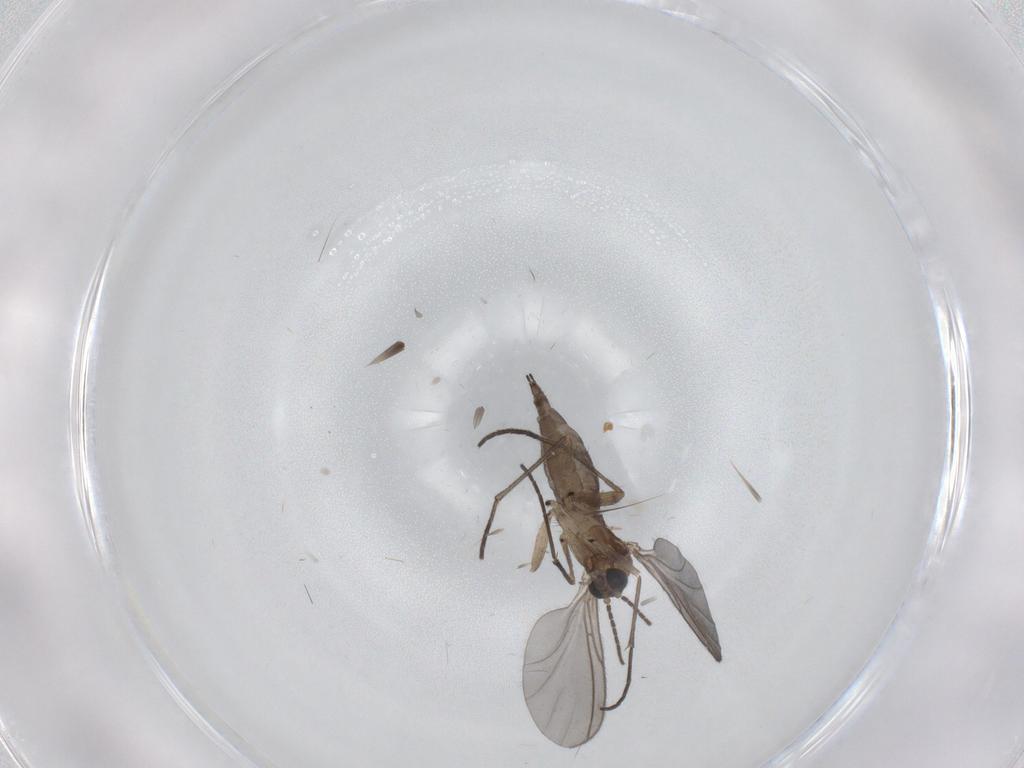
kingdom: Animalia
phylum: Arthropoda
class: Insecta
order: Diptera
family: Sciaridae
